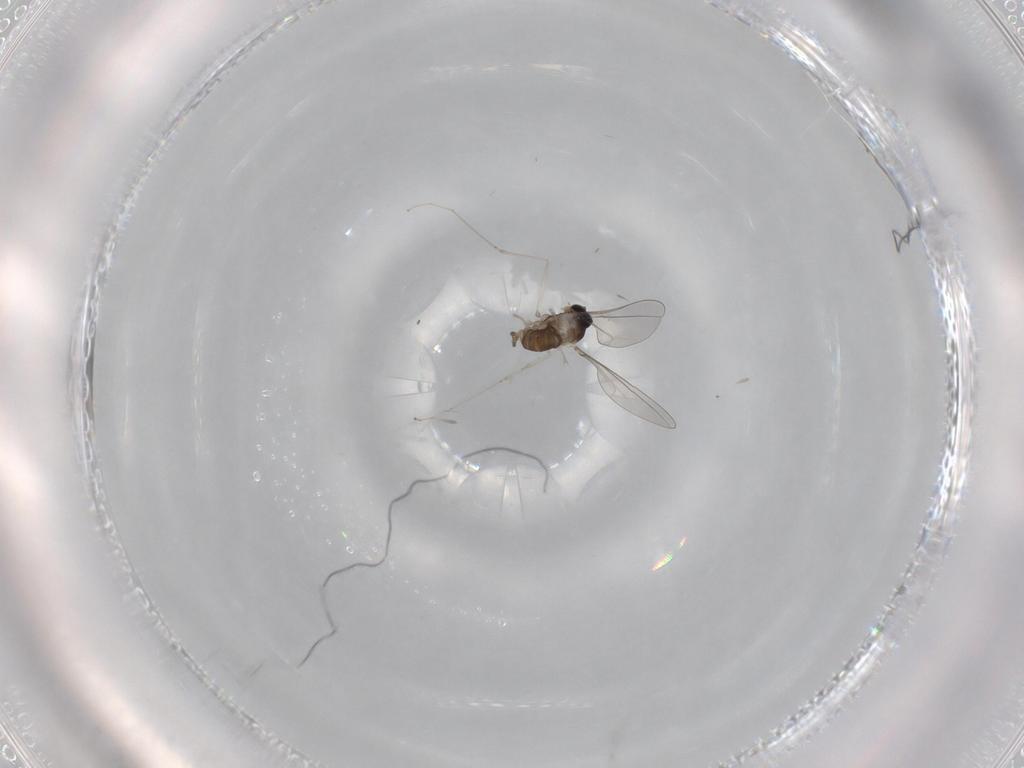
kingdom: Animalia
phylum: Arthropoda
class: Insecta
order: Diptera
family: Cecidomyiidae
